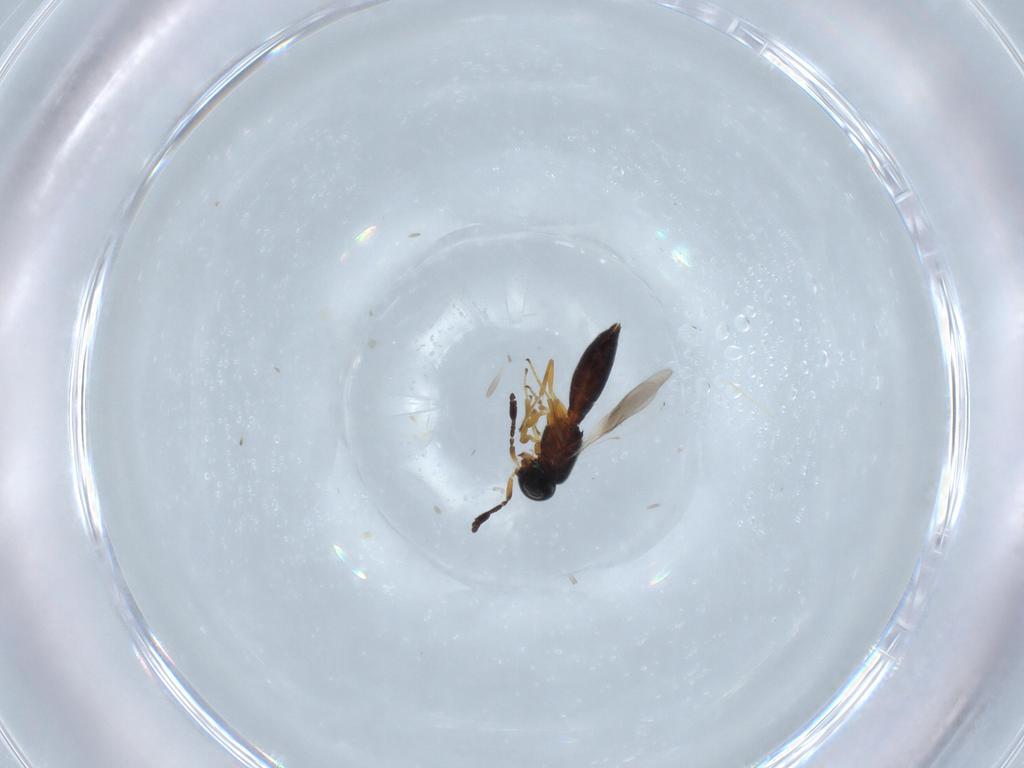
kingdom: Animalia
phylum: Arthropoda
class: Insecta
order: Hymenoptera
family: Scelionidae
